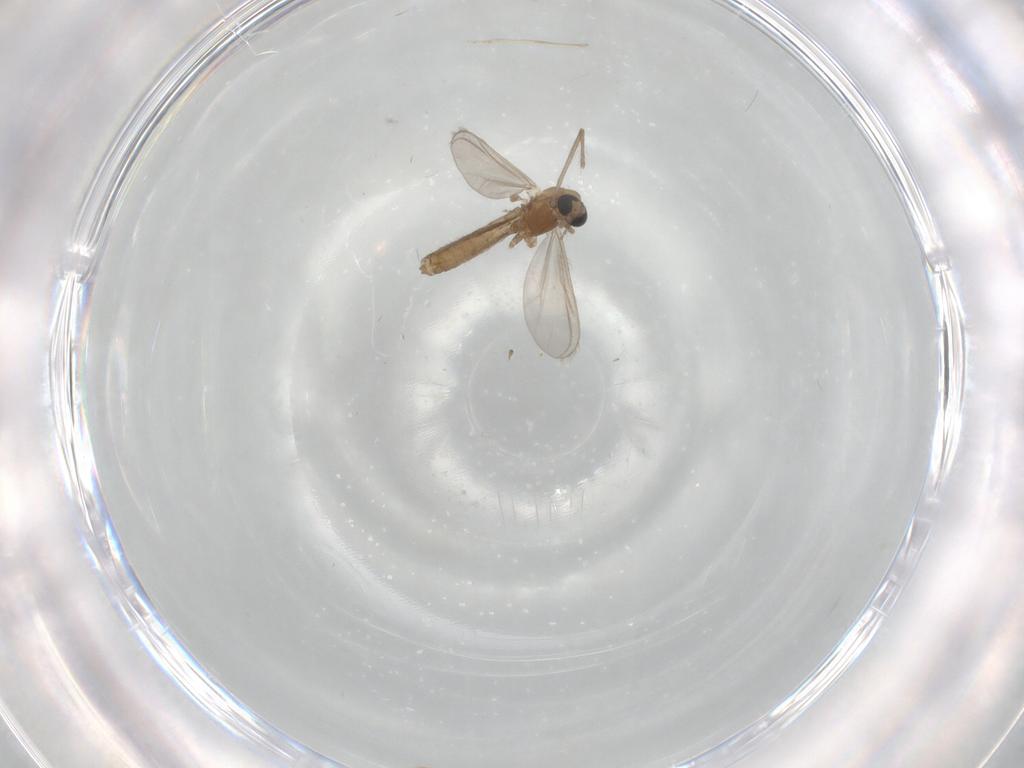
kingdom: Animalia
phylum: Arthropoda
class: Insecta
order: Diptera
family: Chironomidae
